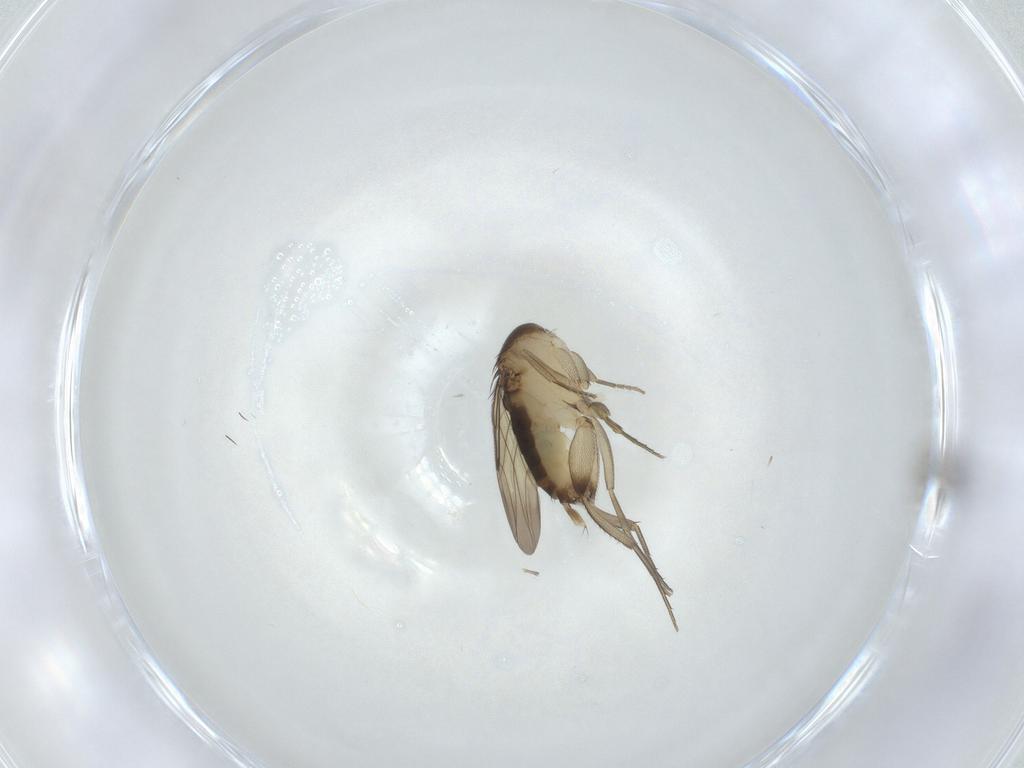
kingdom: Animalia
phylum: Arthropoda
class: Insecta
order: Diptera
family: Phoridae
